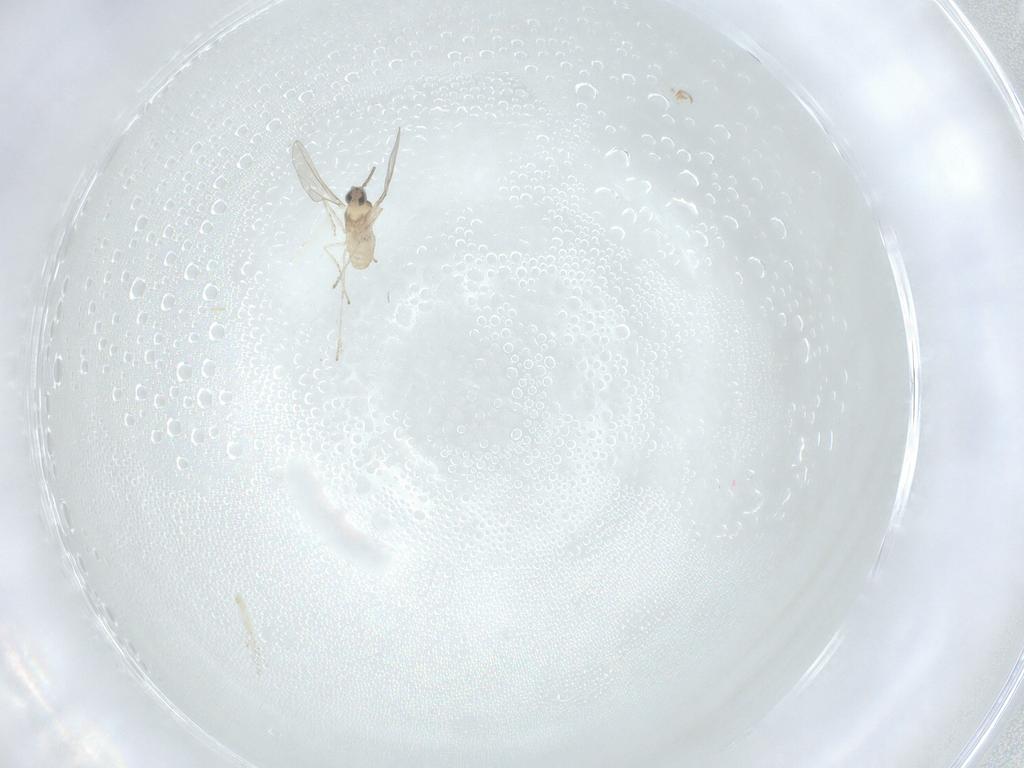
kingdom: Animalia
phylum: Arthropoda
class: Insecta
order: Diptera
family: Cecidomyiidae
